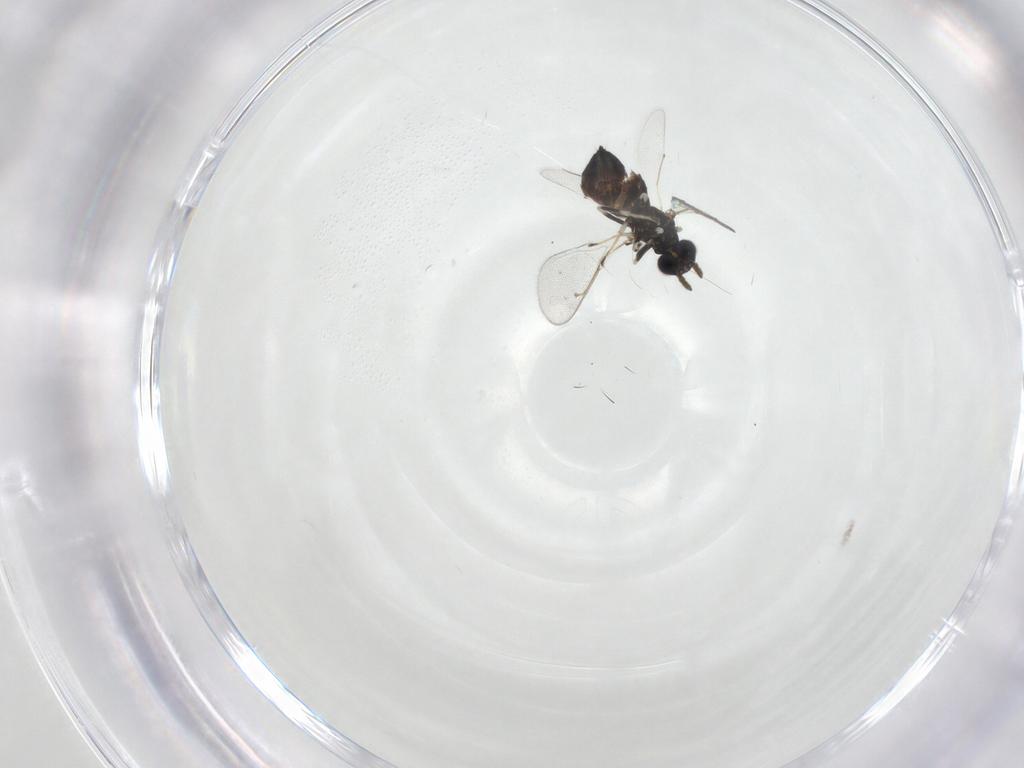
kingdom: Animalia
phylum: Arthropoda
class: Insecta
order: Hymenoptera
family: Eulophidae
